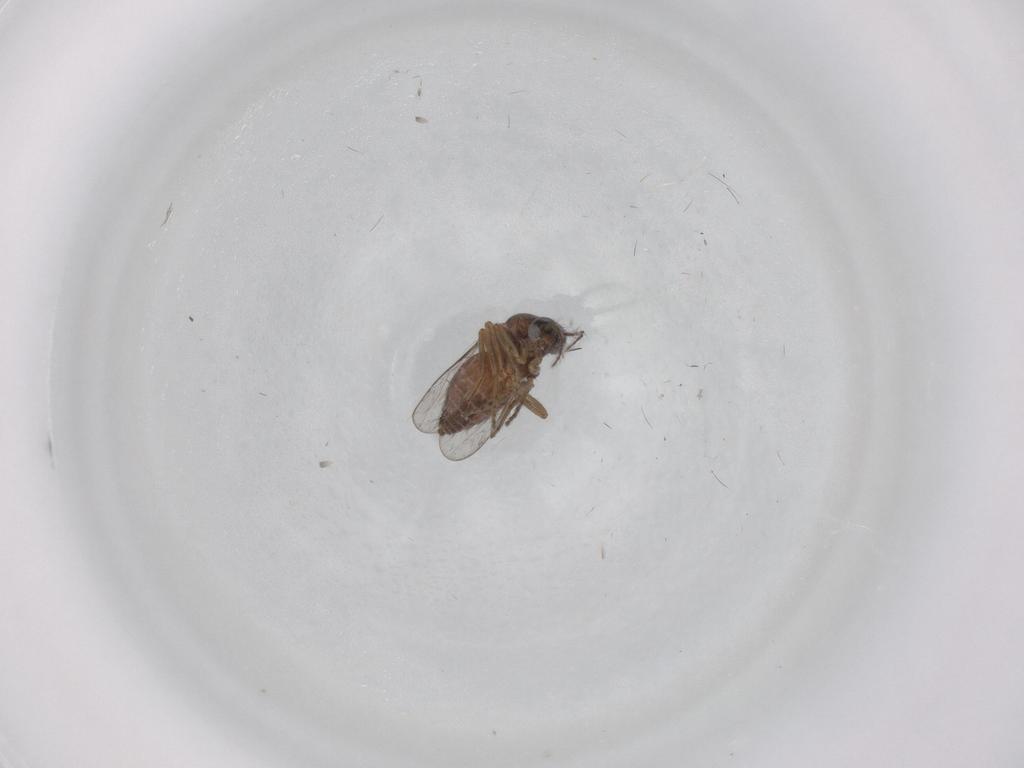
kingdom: Animalia
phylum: Arthropoda
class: Insecta
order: Diptera
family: Ceratopogonidae
